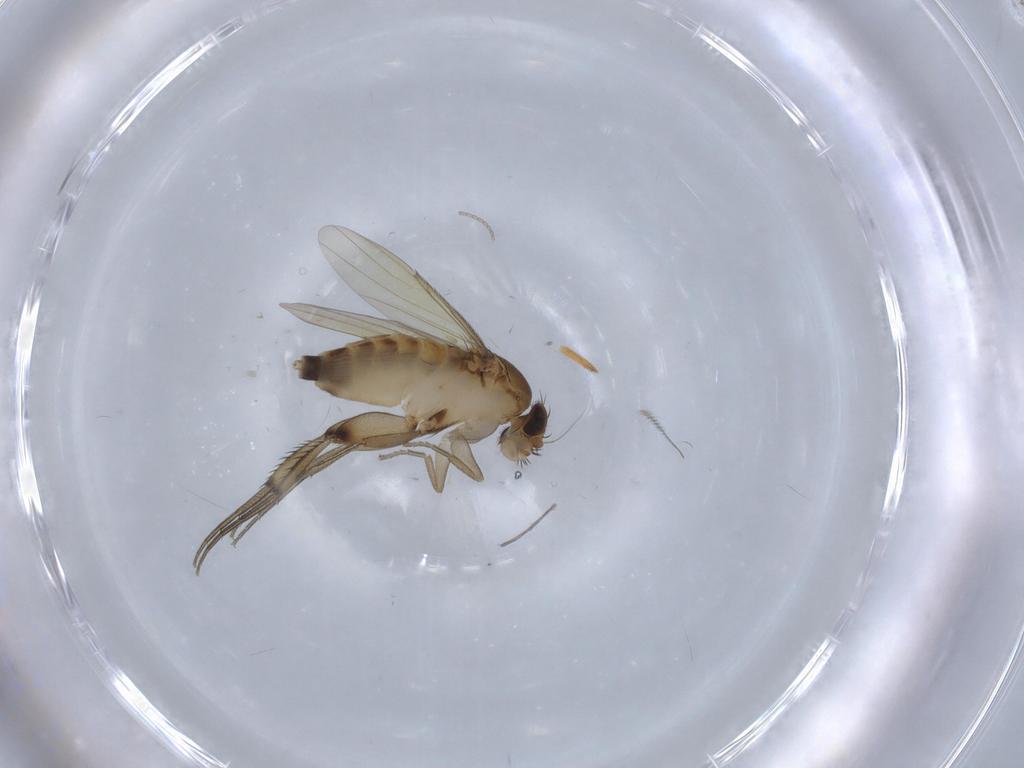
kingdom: Animalia
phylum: Arthropoda
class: Insecta
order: Diptera
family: Phoridae
